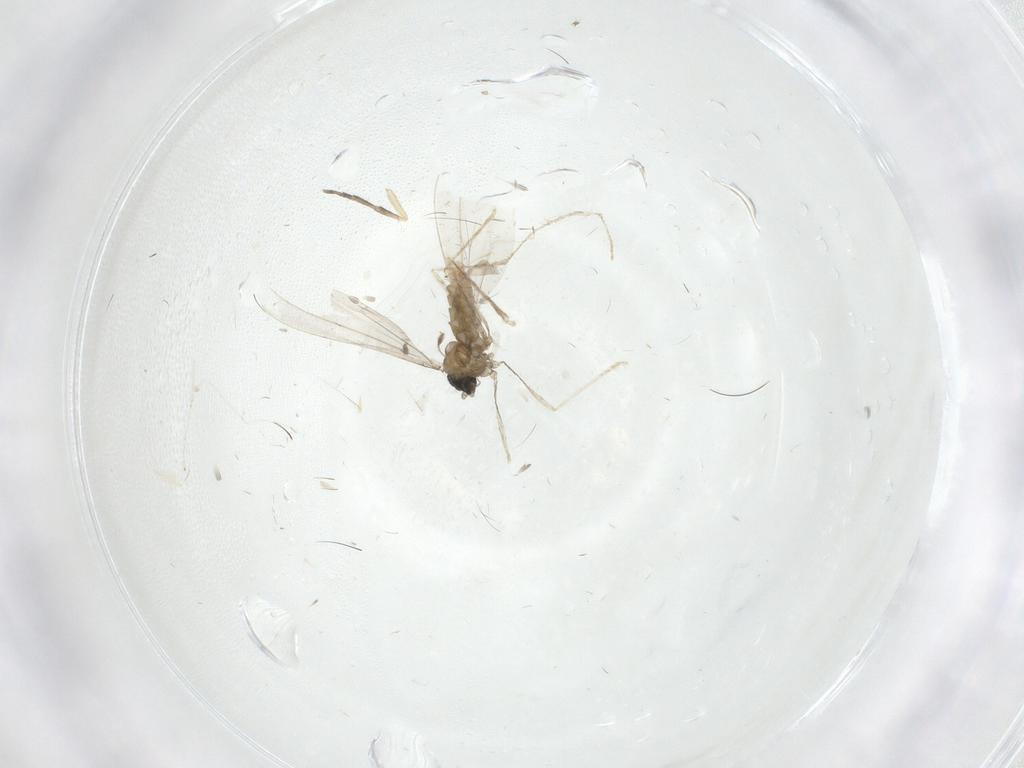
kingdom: Animalia
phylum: Arthropoda
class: Insecta
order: Diptera
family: Cecidomyiidae
